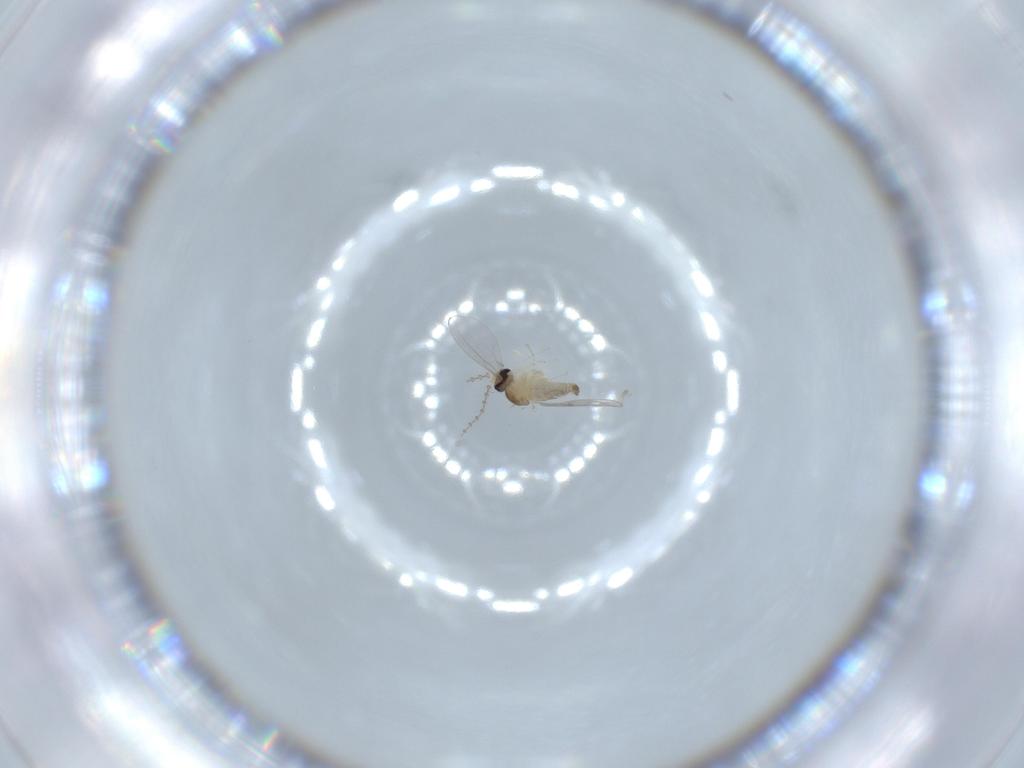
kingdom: Animalia
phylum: Arthropoda
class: Insecta
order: Diptera
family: Cecidomyiidae
